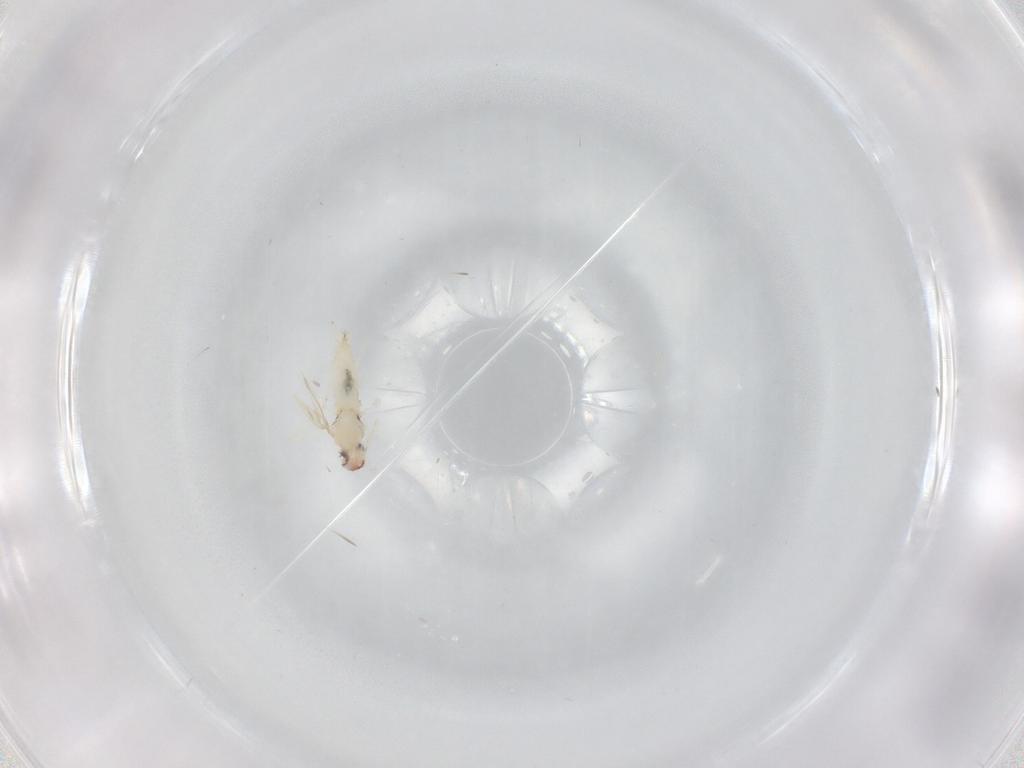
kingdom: Animalia
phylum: Arthropoda
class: Insecta
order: Diptera
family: Cecidomyiidae
